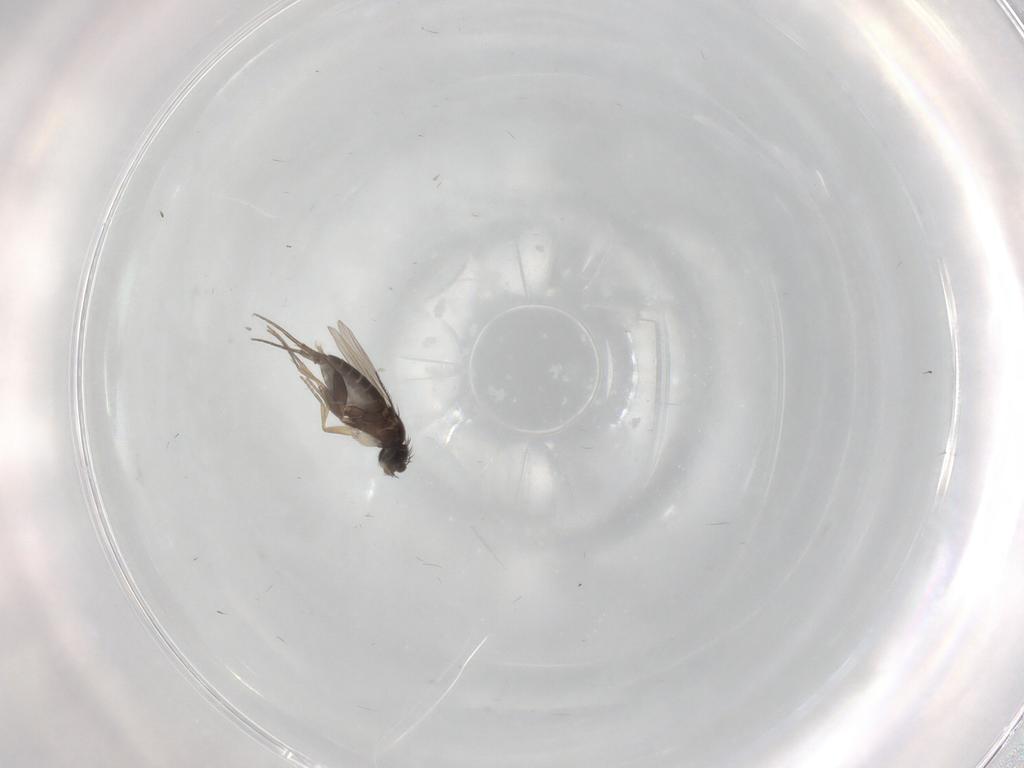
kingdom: Animalia
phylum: Arthropoda
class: Insecta
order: Diptera
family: Phoridae
